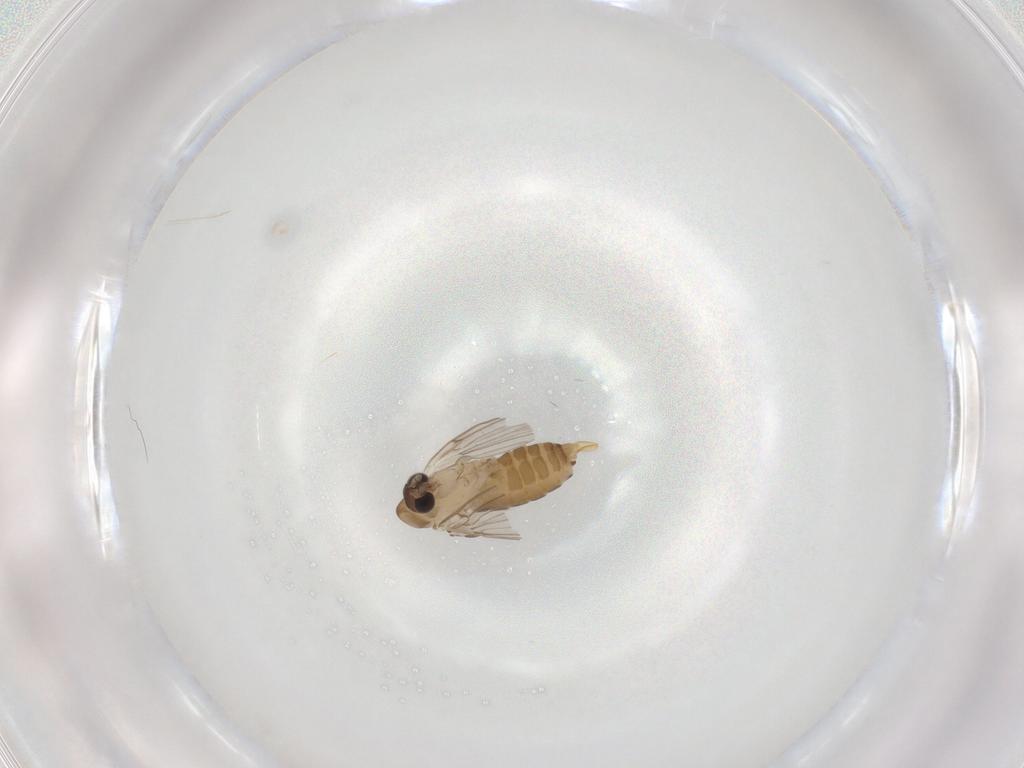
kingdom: Animalia
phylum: Arthropoda
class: Insecta
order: Diptera
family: Psychodidae
